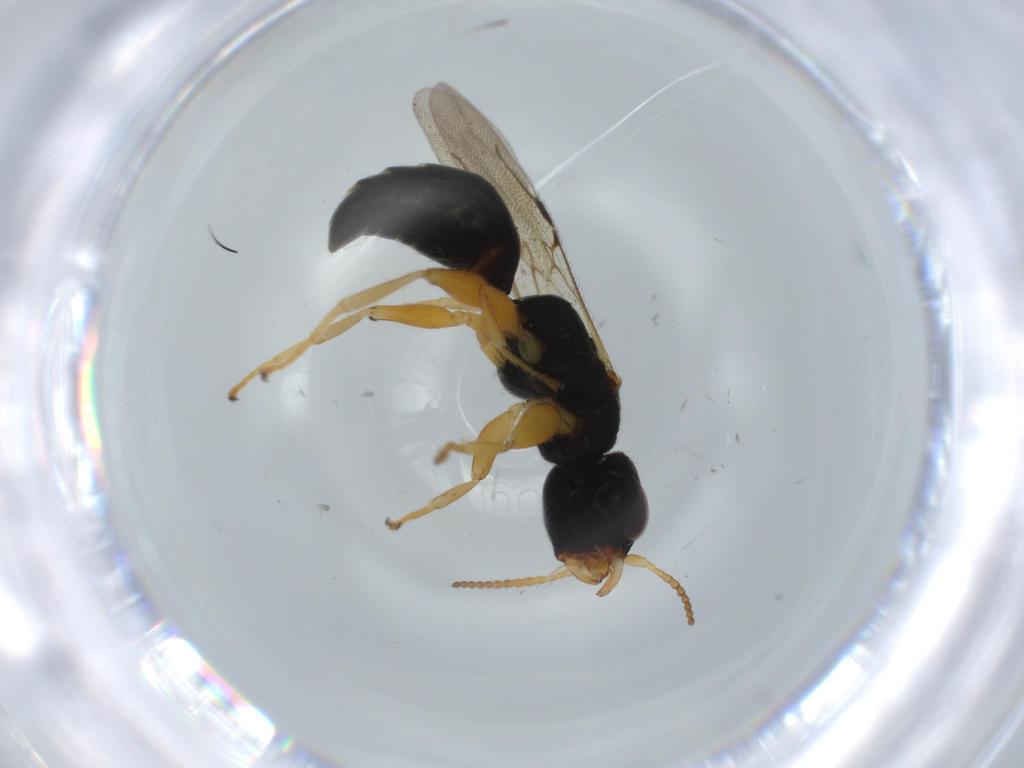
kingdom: Animalia
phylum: Arthropoda
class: Insecta
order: Hymenoptera
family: Bethylidae
